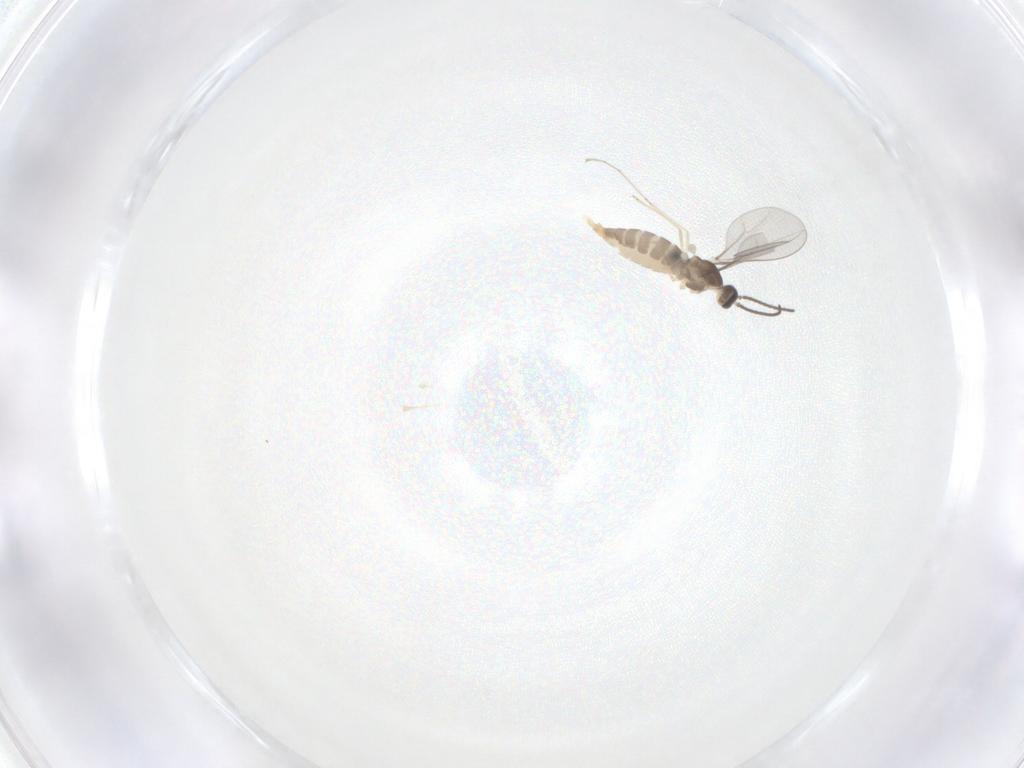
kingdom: Animalia
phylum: Arthropoda
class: Insecta
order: Diptera
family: Cecidomyiidae
